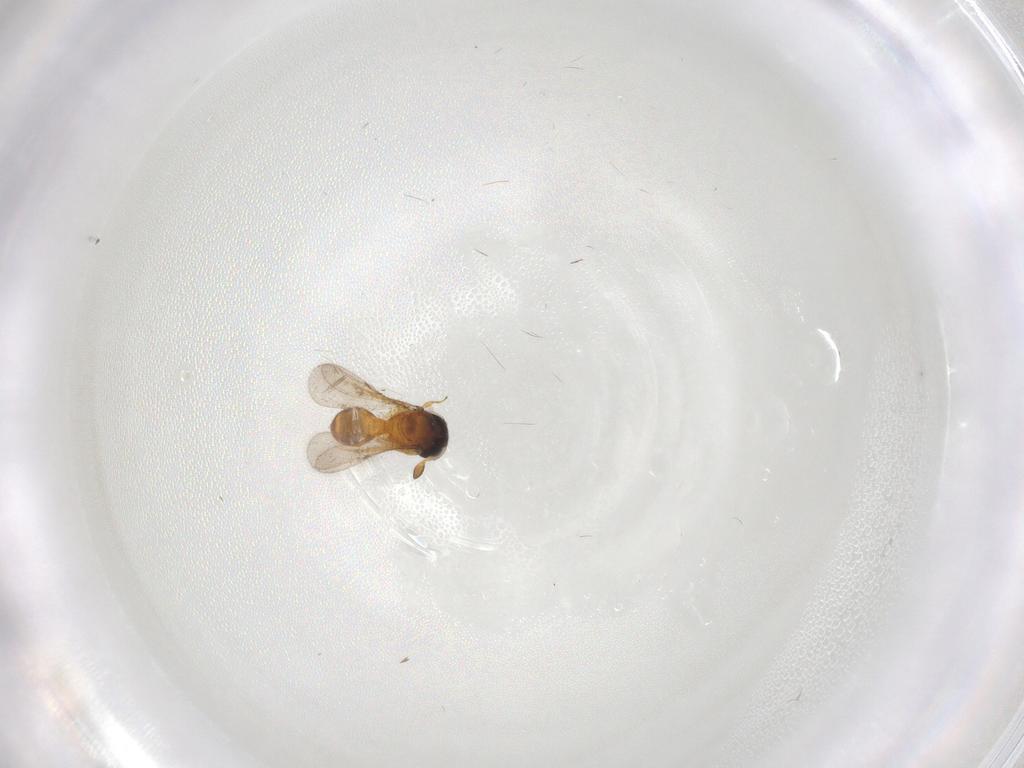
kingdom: Animalia
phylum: Arthropoda
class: Insecta
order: Hymenoptera
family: Scelionidae
